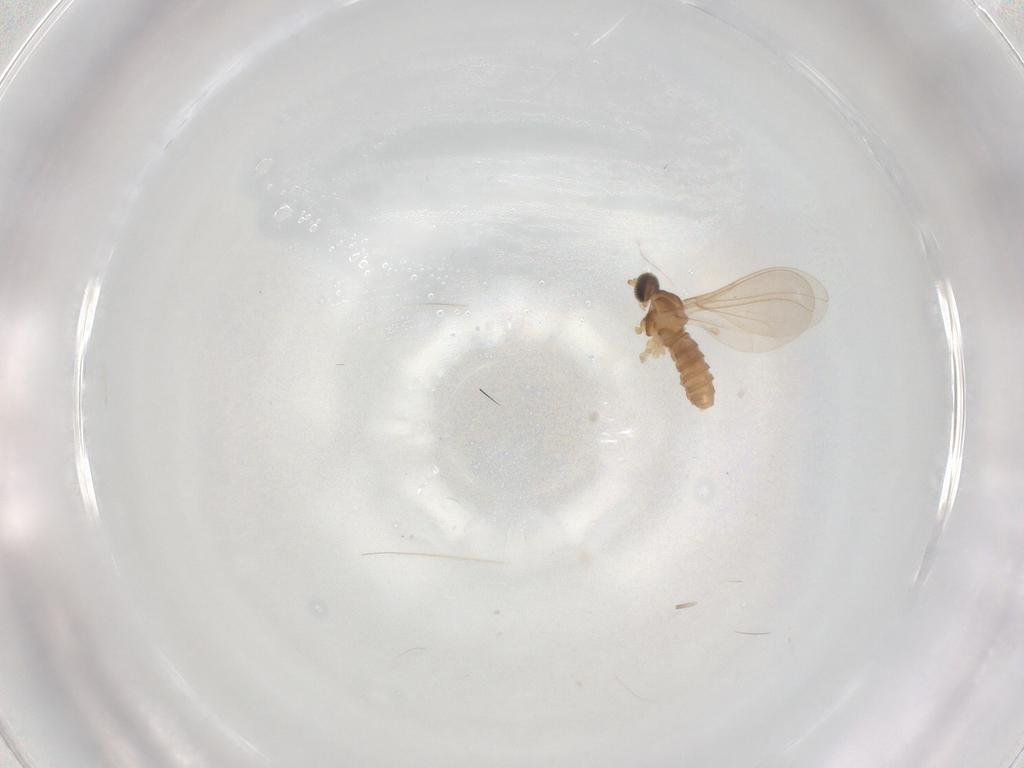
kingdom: Animalia
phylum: Arthropoda
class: Insecta
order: Diptera
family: Cecidomyiidae
